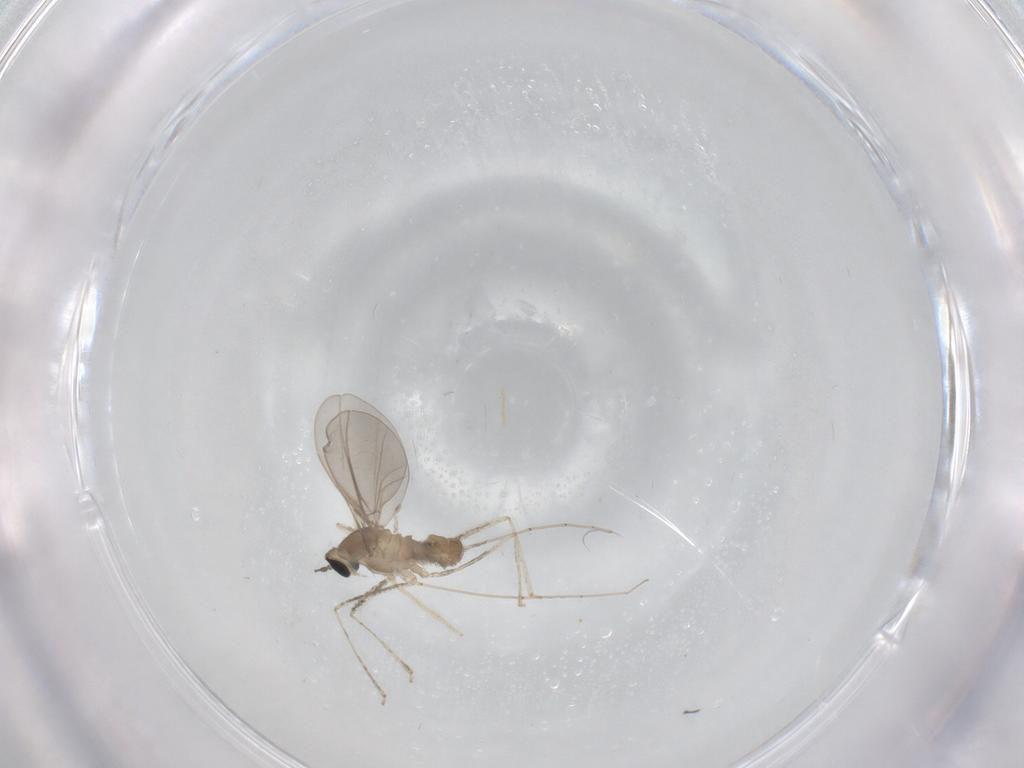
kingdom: Animalia
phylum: Arthropoda
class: Insecta
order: Diptera
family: Cecidomyiidae
